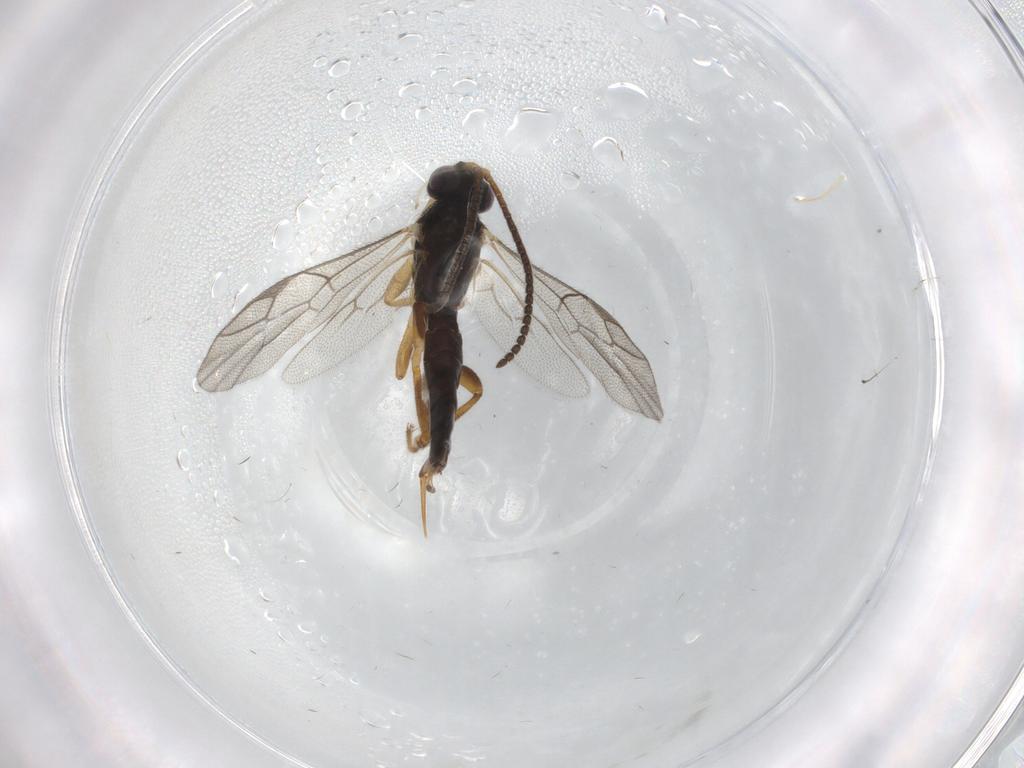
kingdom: Animalia
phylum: Arthropoda
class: Insecta
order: Hymenoptera
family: Ichneumonidae
